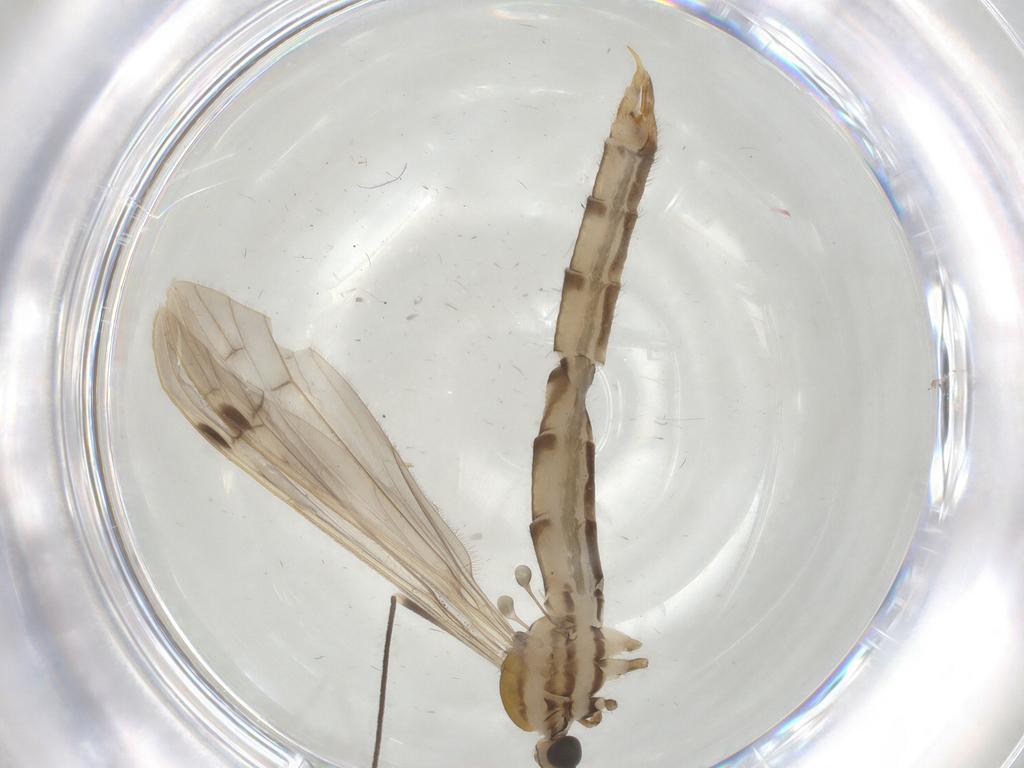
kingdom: Animalia
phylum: Arthropoda
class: Insecta
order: Diptera
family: Limoniidae
